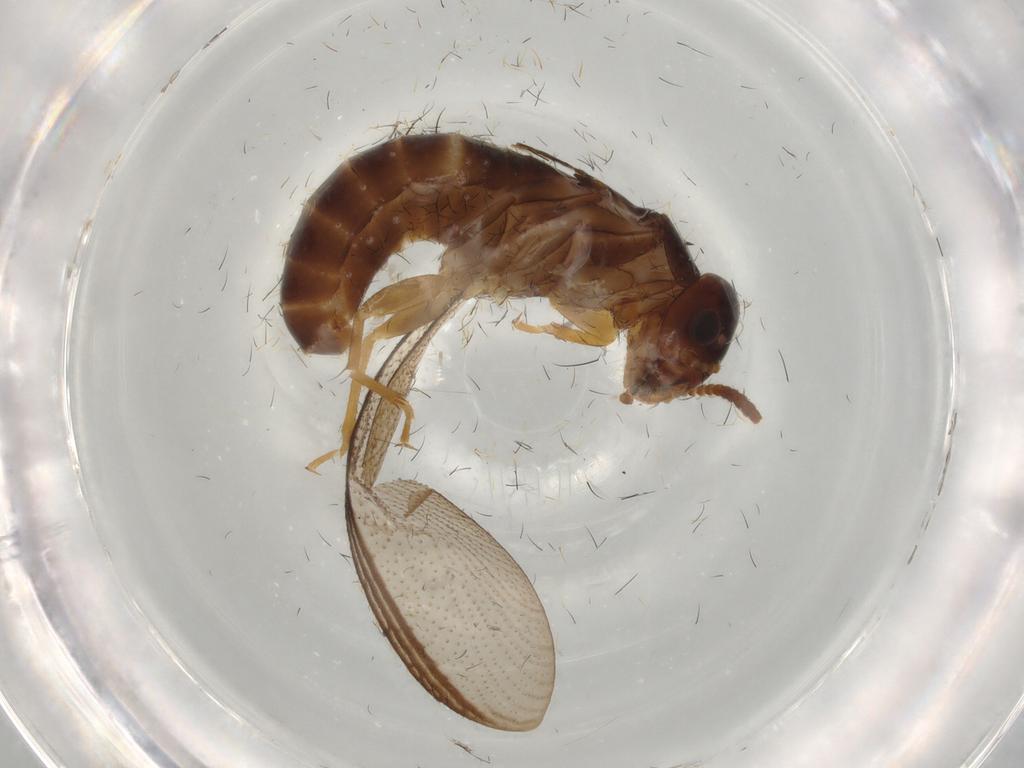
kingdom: Animalia
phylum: Arthropoda
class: Insecta
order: Blattodea
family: Kalotermitidae
